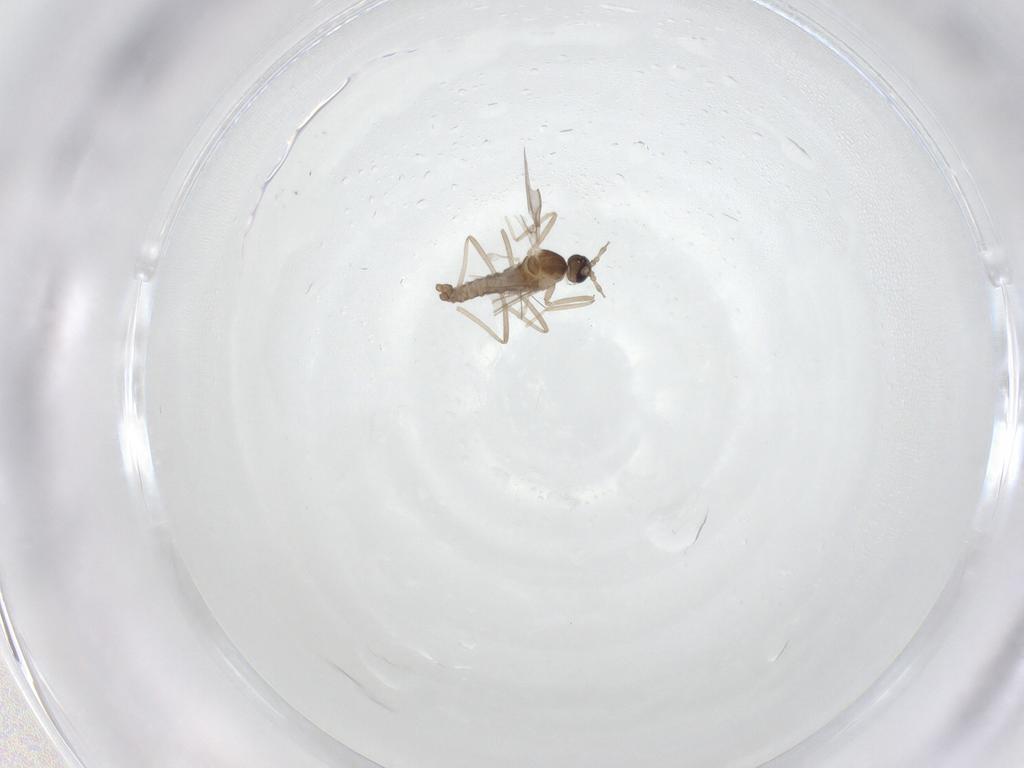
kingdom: Animalia
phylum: Arthropoda
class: Insecta
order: Diptera
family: Cecidomyiidae
